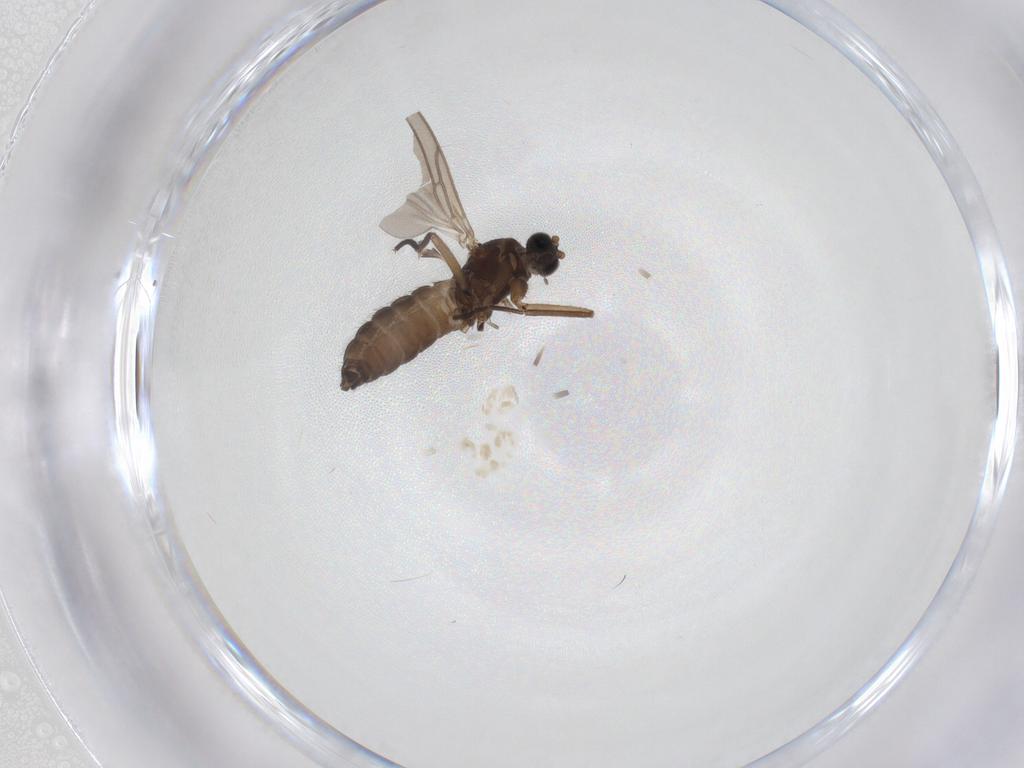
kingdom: Animalia
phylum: Arthropoda
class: Insecta
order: Diptera
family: Sciaridae
